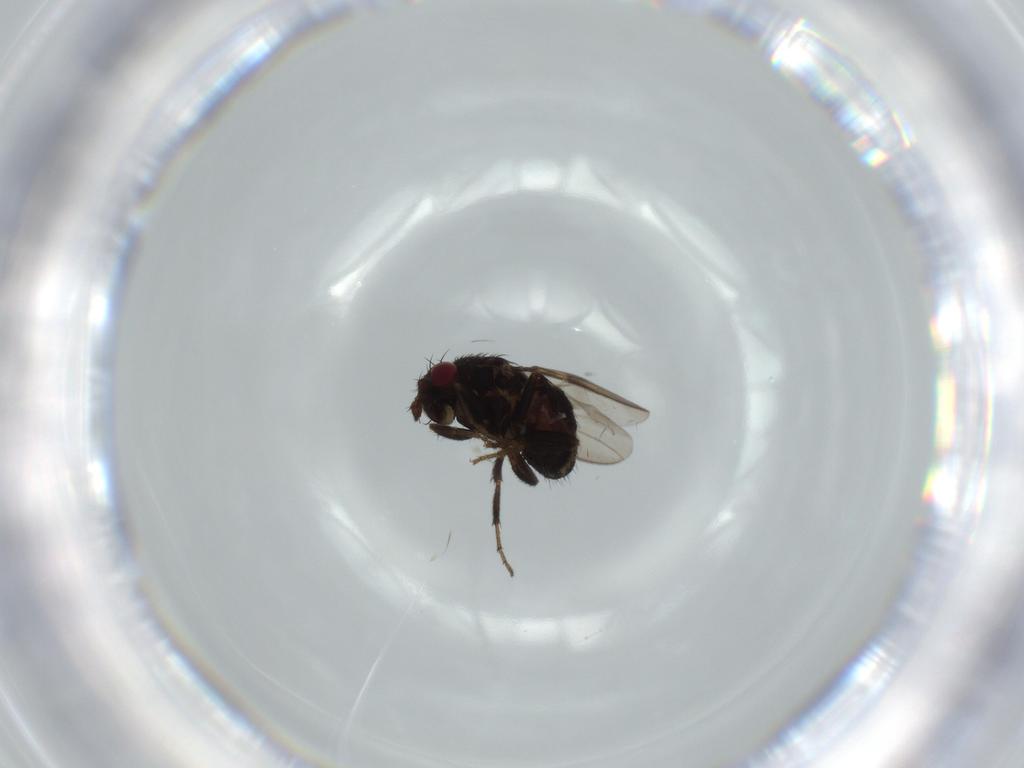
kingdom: Animalia
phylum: Arthropoda
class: Insecta
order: Diptera
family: Sphaeroceridae
